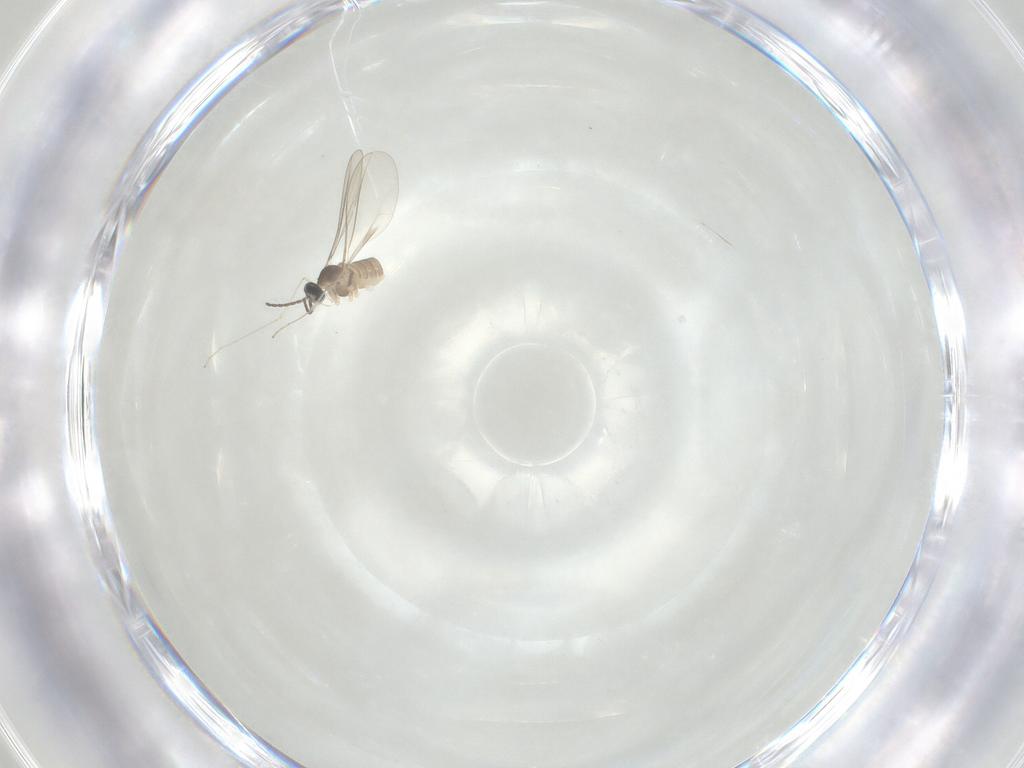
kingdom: Animalia
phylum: Arthropoda
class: Insecta
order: Diptera
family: Cecidomyiidae
